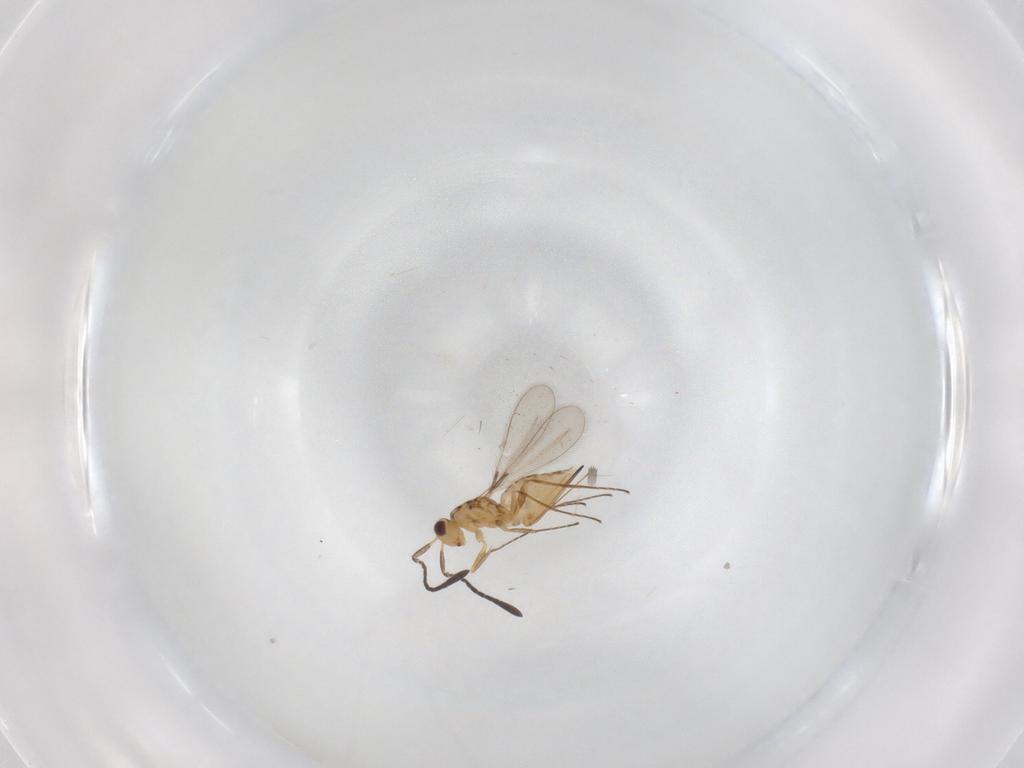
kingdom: Animalia
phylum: Arthropoda
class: Insecta
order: Hymenoptera
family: Mymaridae
